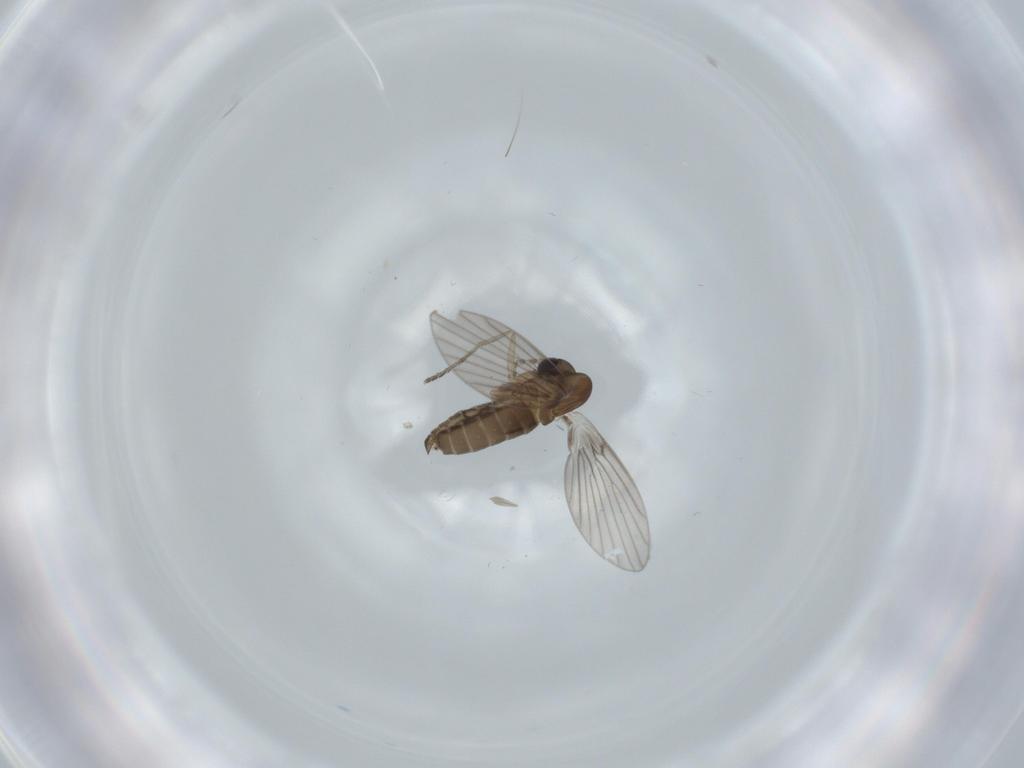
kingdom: Animalia
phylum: Arthropoda
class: Insecta
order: Diptera
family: Psychodidae
